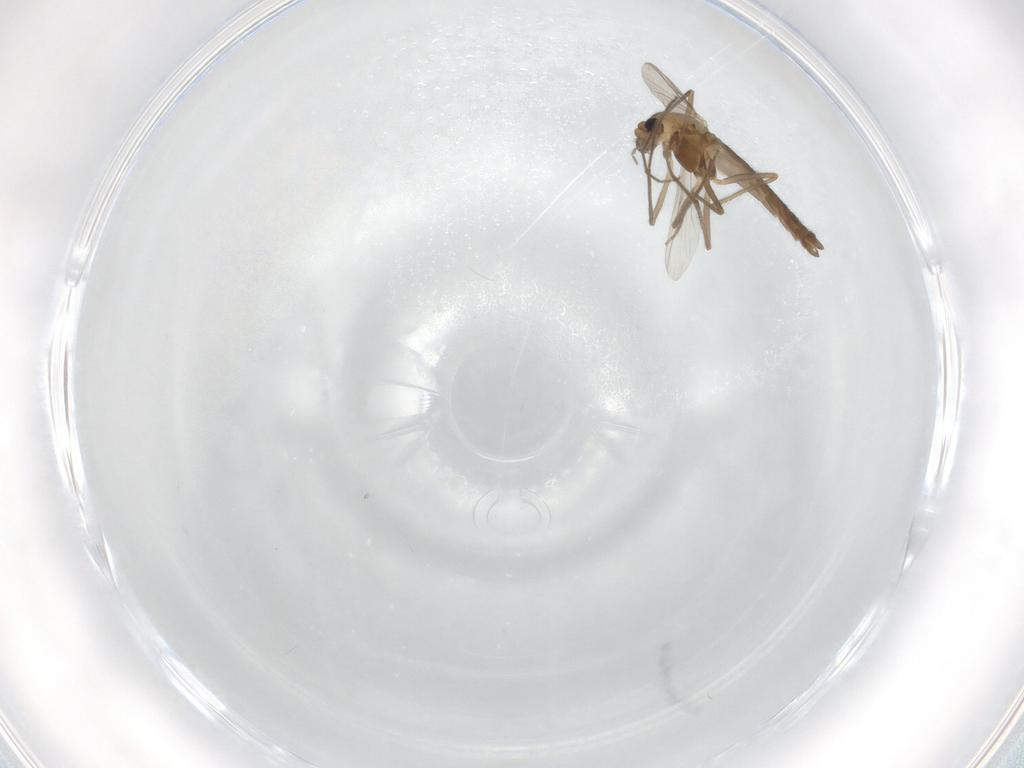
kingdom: Animalia
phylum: Arthropoda
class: Insecta
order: Diptera
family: Chironomidae
